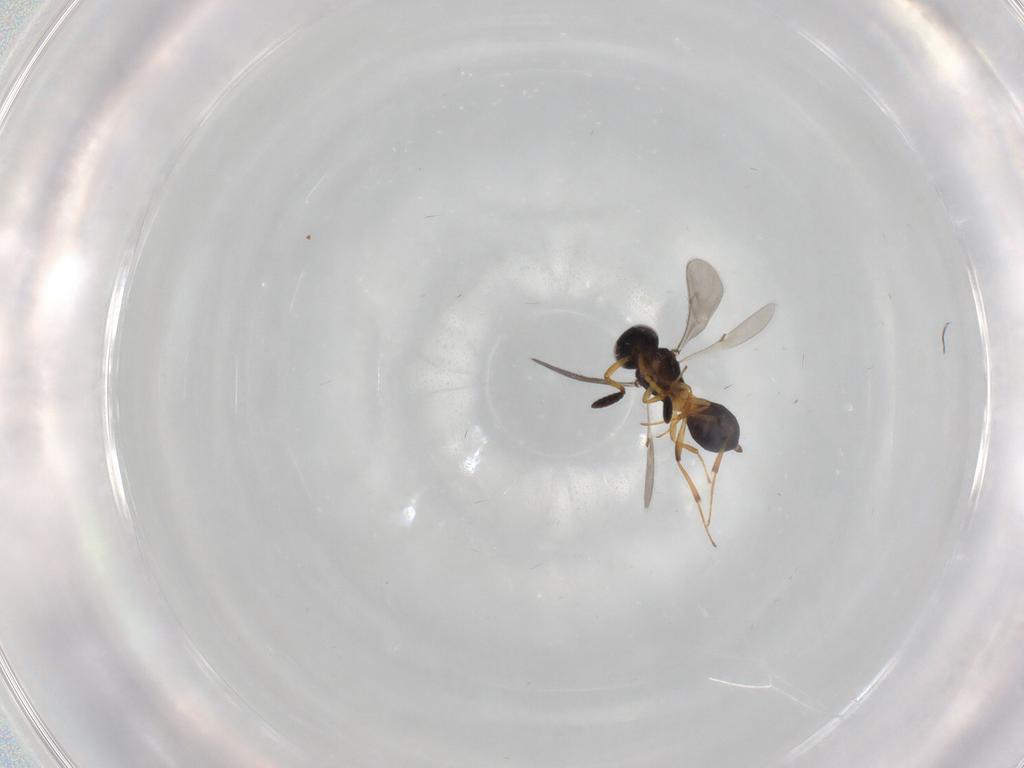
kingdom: Animalia
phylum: Arthropoda
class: Insecta
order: Hymenoptera
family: Scelionidae
